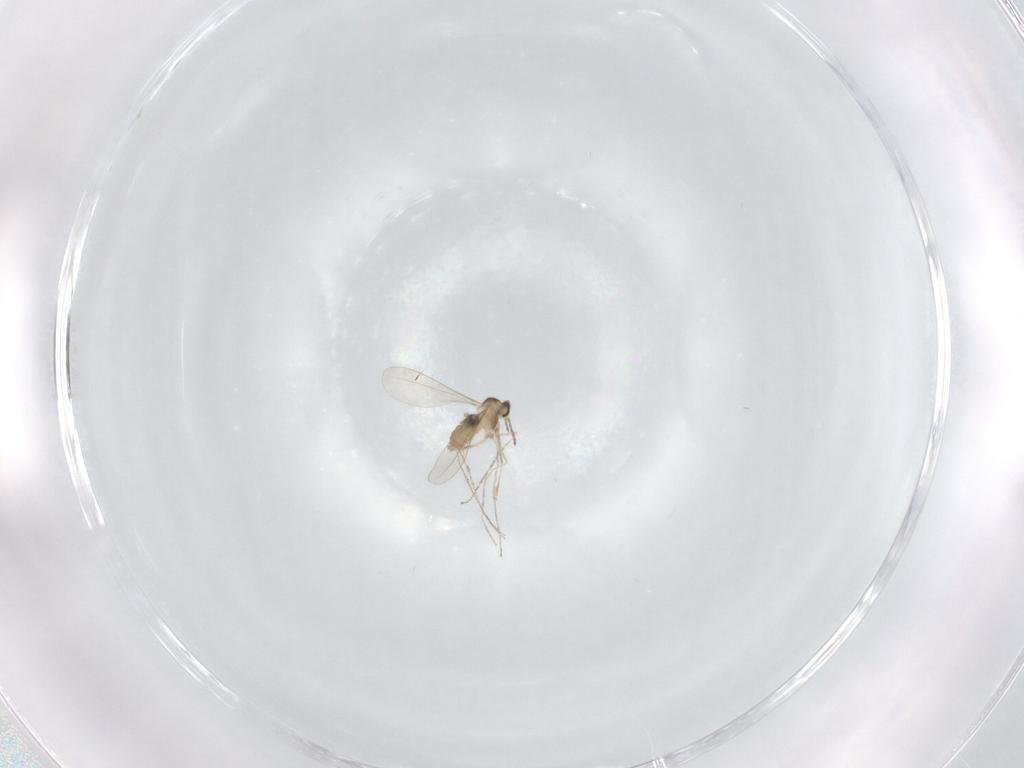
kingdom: Animalia
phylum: Arthropoda
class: Insecta
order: Diptera
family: Cecidomyiidae
